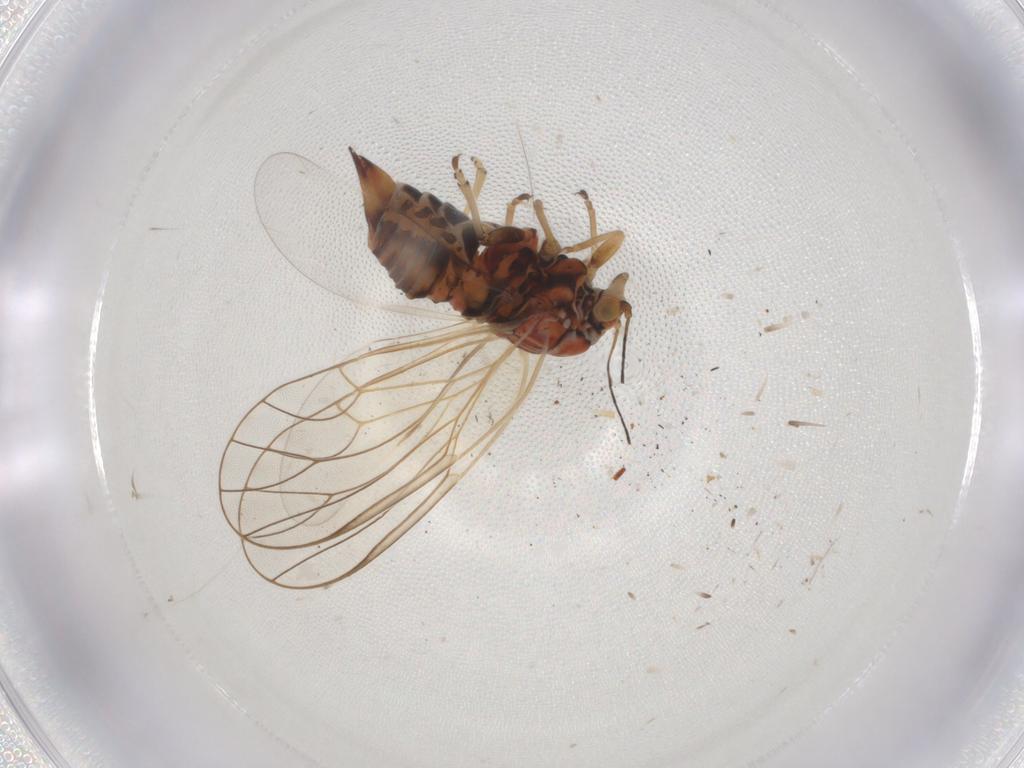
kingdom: Animalia
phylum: Arthropoda
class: Insecta
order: Hemiptera
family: Psyllidae
